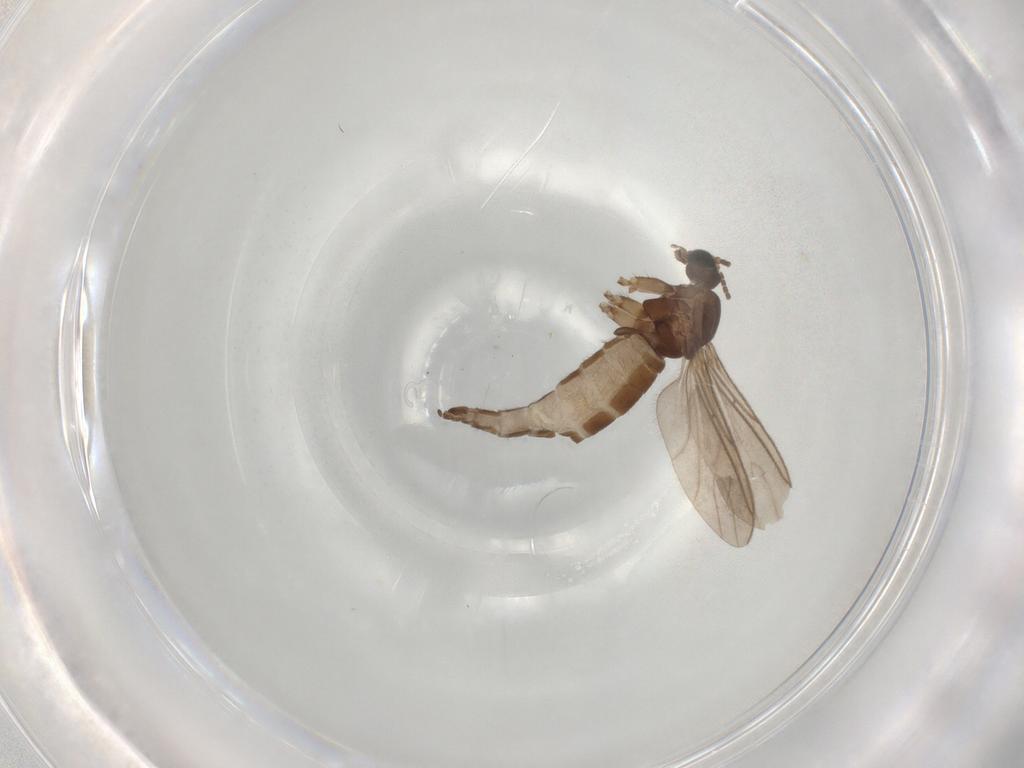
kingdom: Animalia
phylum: Arthropoda
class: Insecta
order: Diptera
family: Sciaridae
